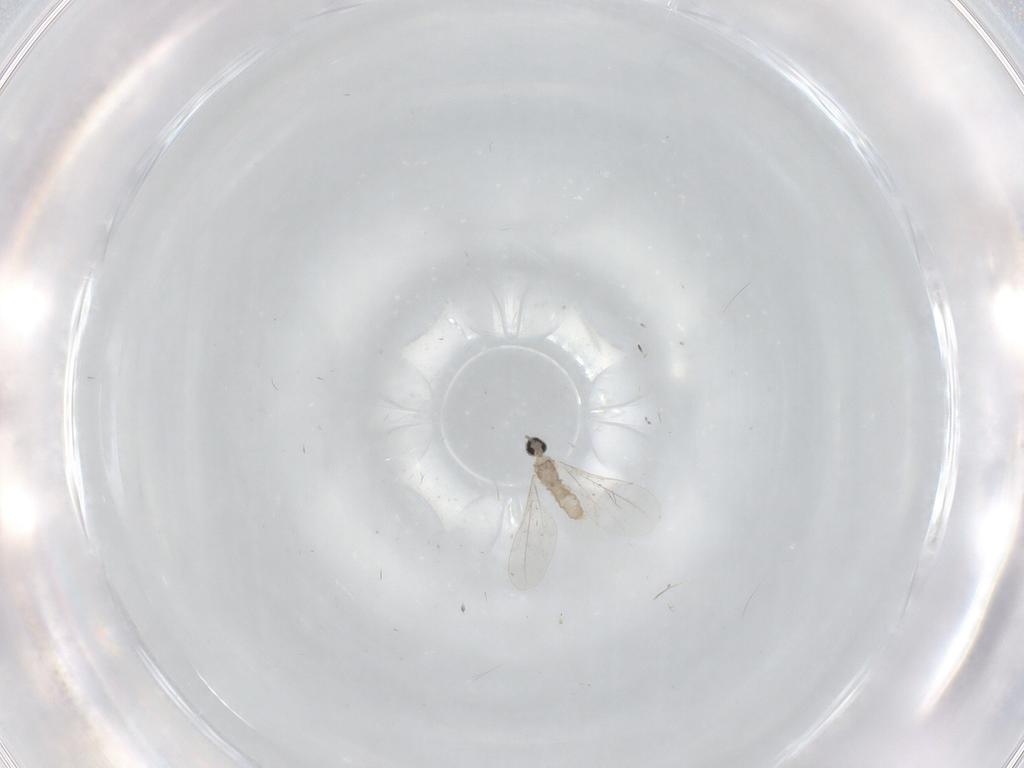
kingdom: Animalia
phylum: Arthropoda
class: Insecta
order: Diptera
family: Cecidomyiidae
